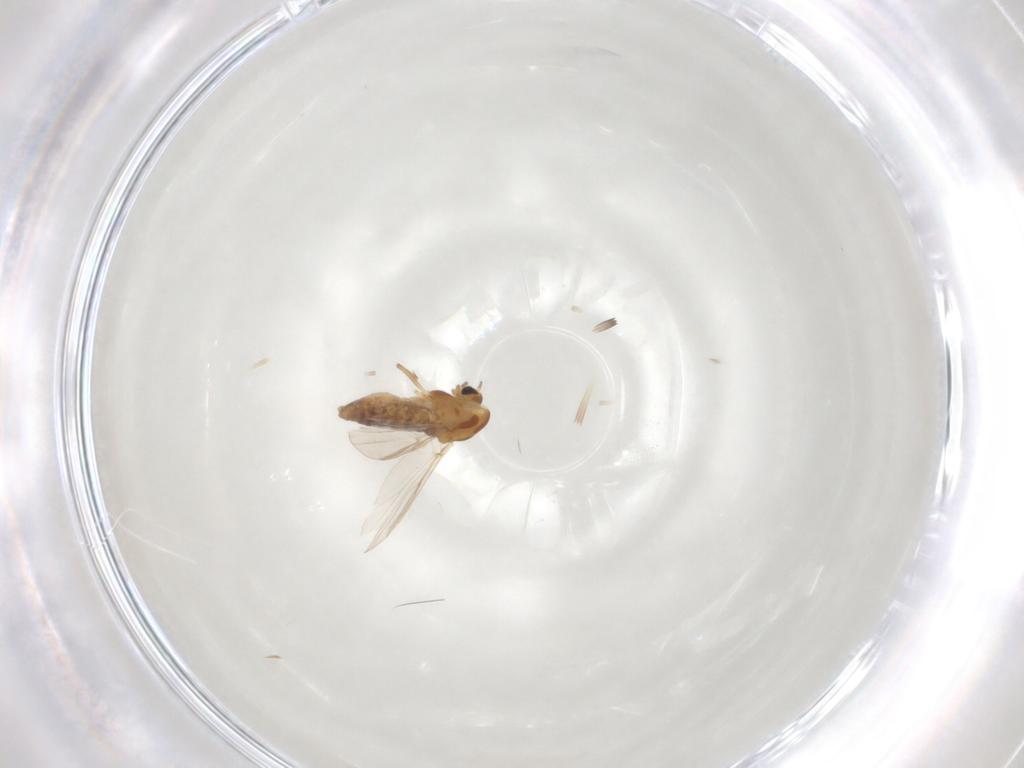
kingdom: Animalia
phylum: Arthropoda
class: Insecta
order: Diptera
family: Chironomidae
